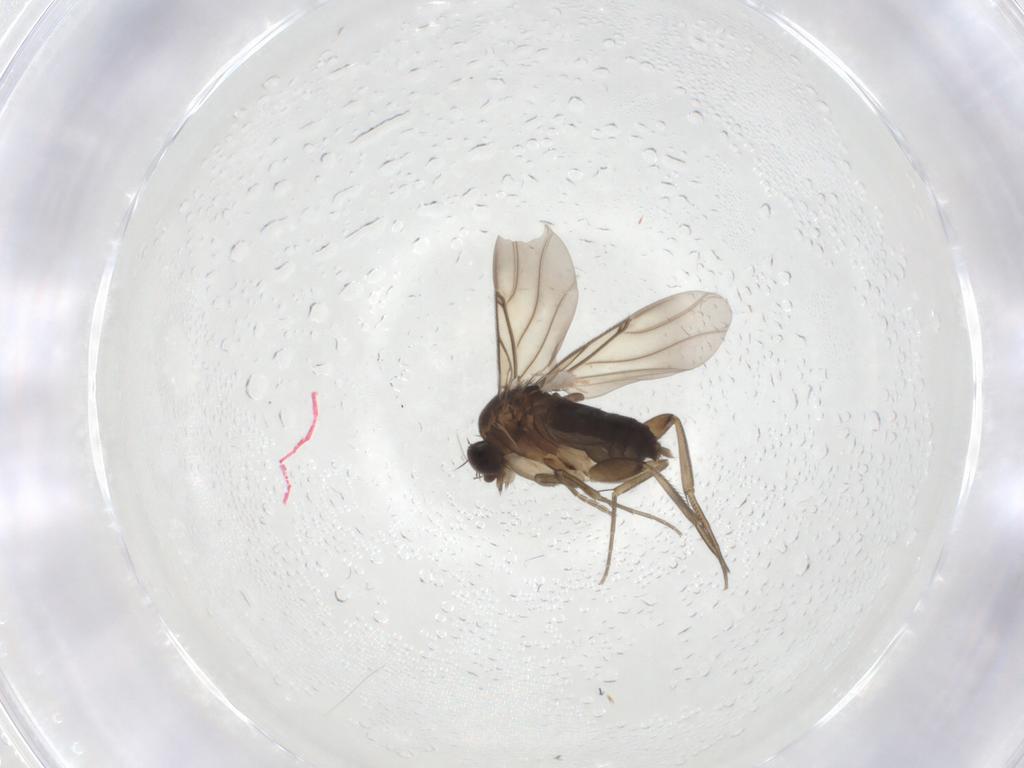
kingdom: Animalia
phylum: Arthropoda
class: Insecta
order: Diptera
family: Phoridae
